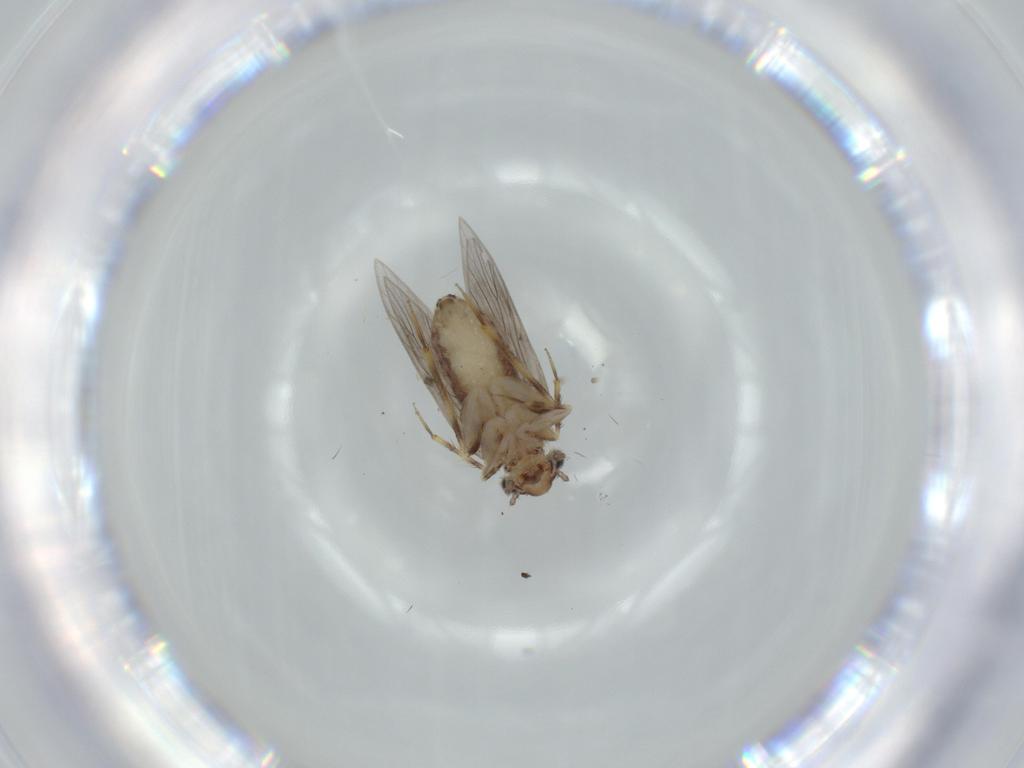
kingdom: Animalia
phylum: Arthropoda
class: Insecta
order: Psocodea
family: Lepidopsocidae
